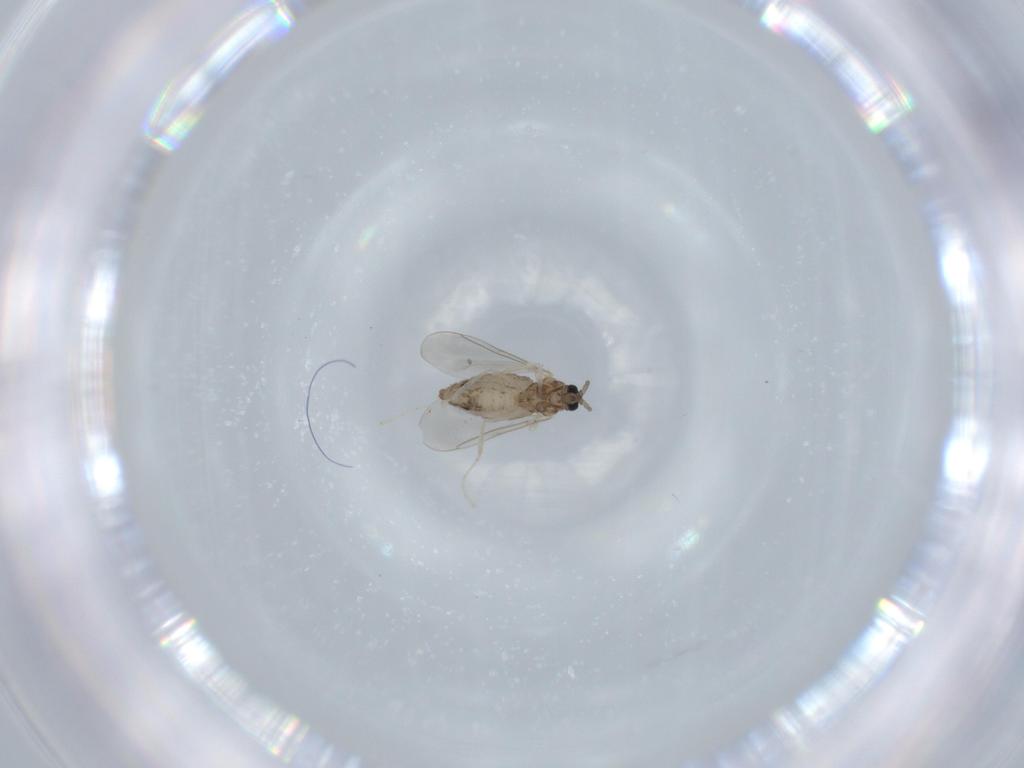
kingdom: Animalia
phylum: Arthropoda
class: Insecta
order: Diptera
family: Cecidomyiidae
